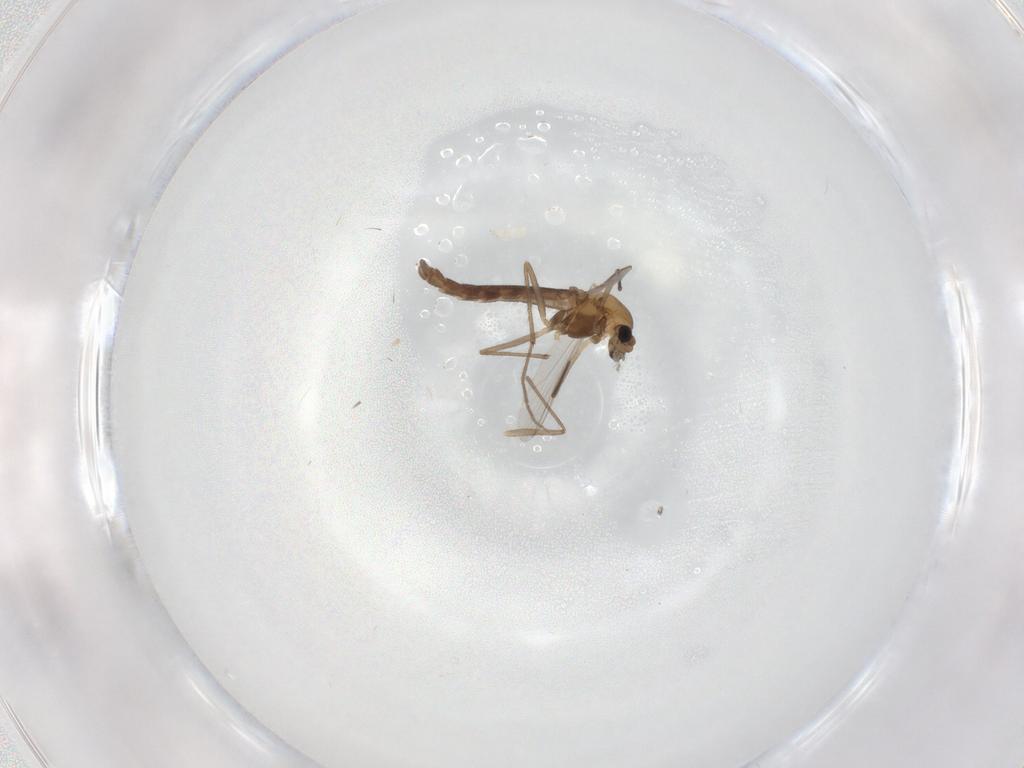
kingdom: Animalia
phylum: Arthropoda
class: Insecta
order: Diptera
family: Chironomidae
